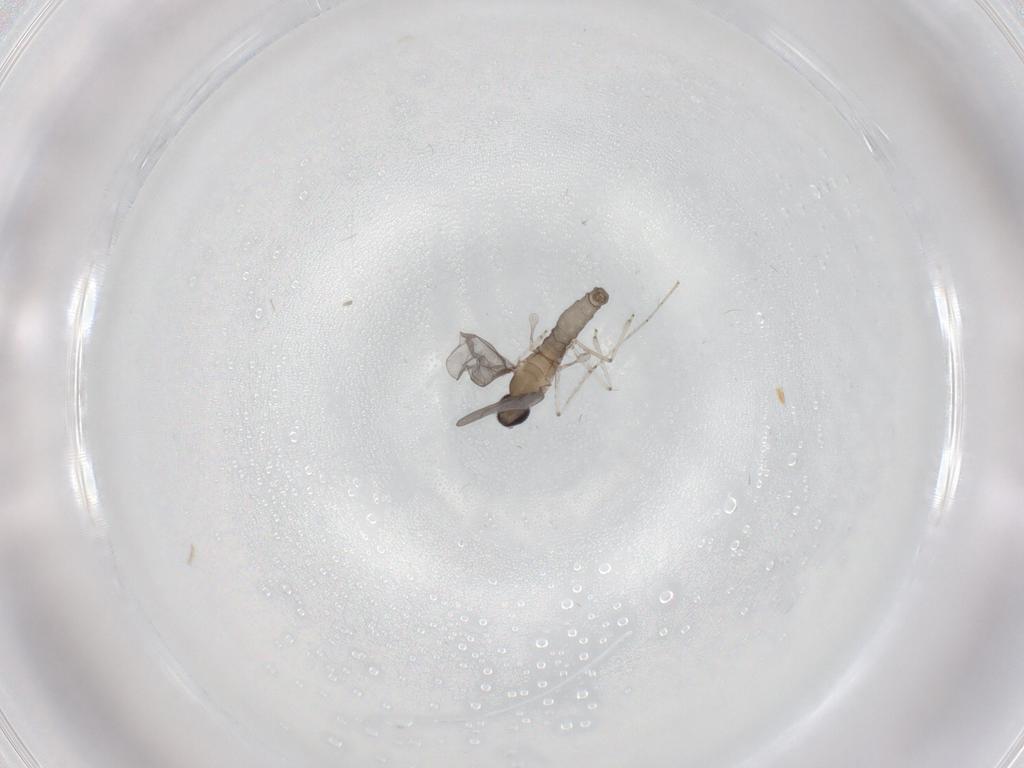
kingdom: Animalia
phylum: Arthropoda
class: Insecta
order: Diptera
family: Cecidomyiidae
